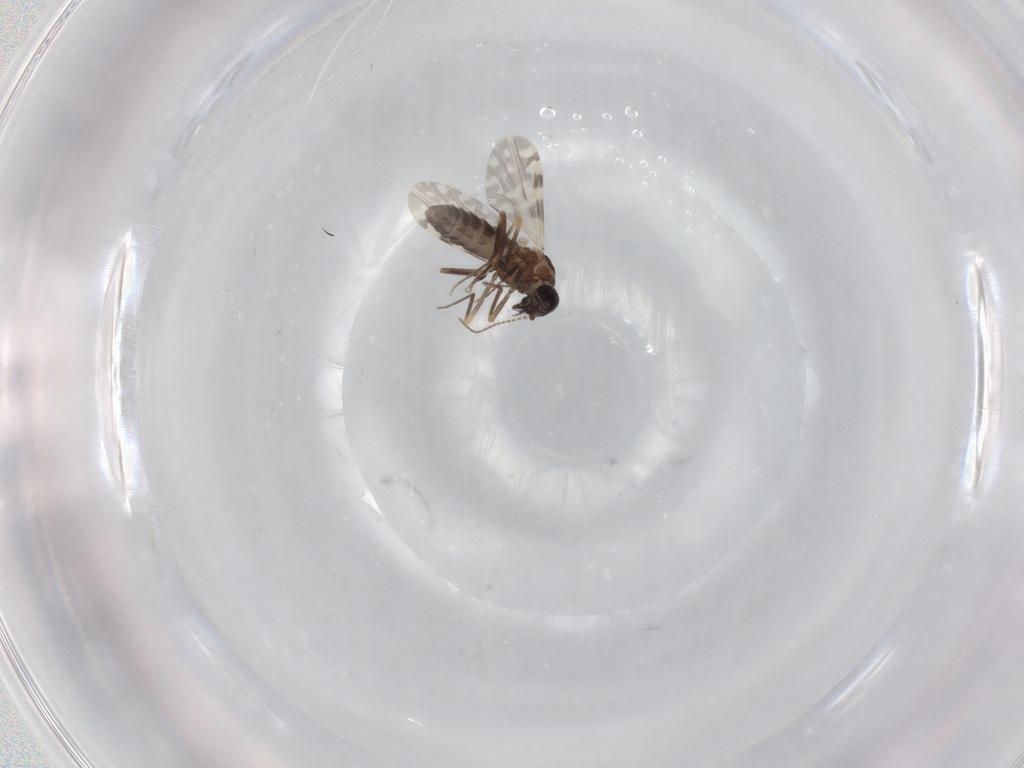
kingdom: Animalia
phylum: Arthropoda
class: Insecta
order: Diptera
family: Ceratopogonidae
